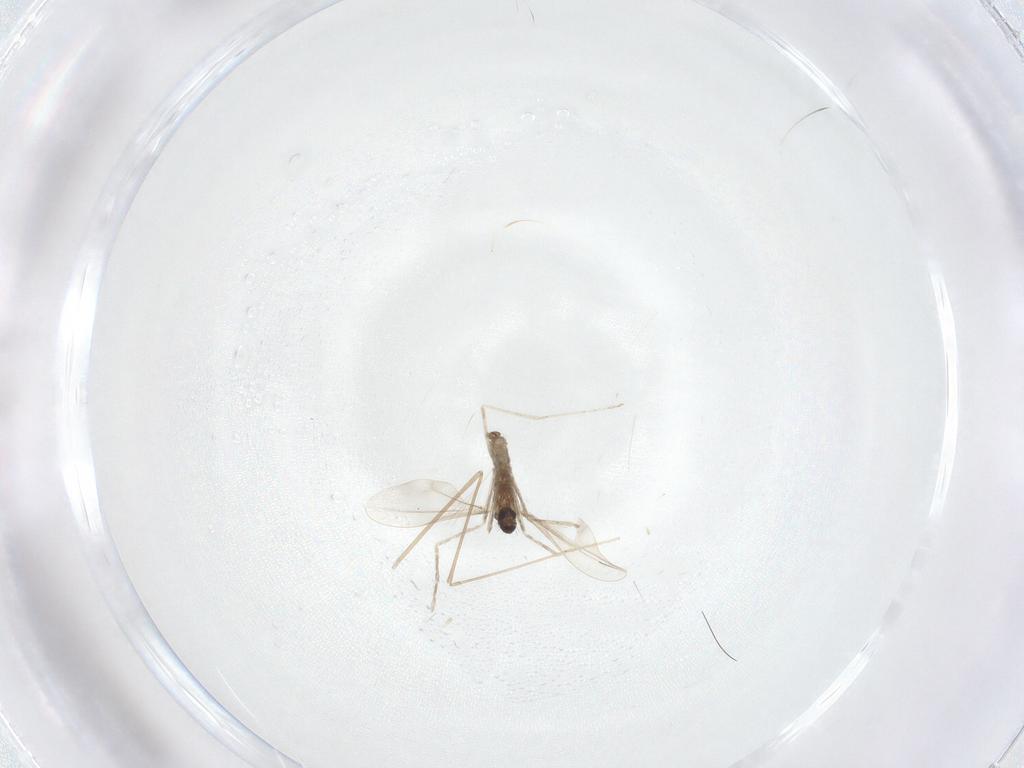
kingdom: Animalia
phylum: Arthropoda
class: Insecta
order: Diptera
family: Cecidomyiidae
